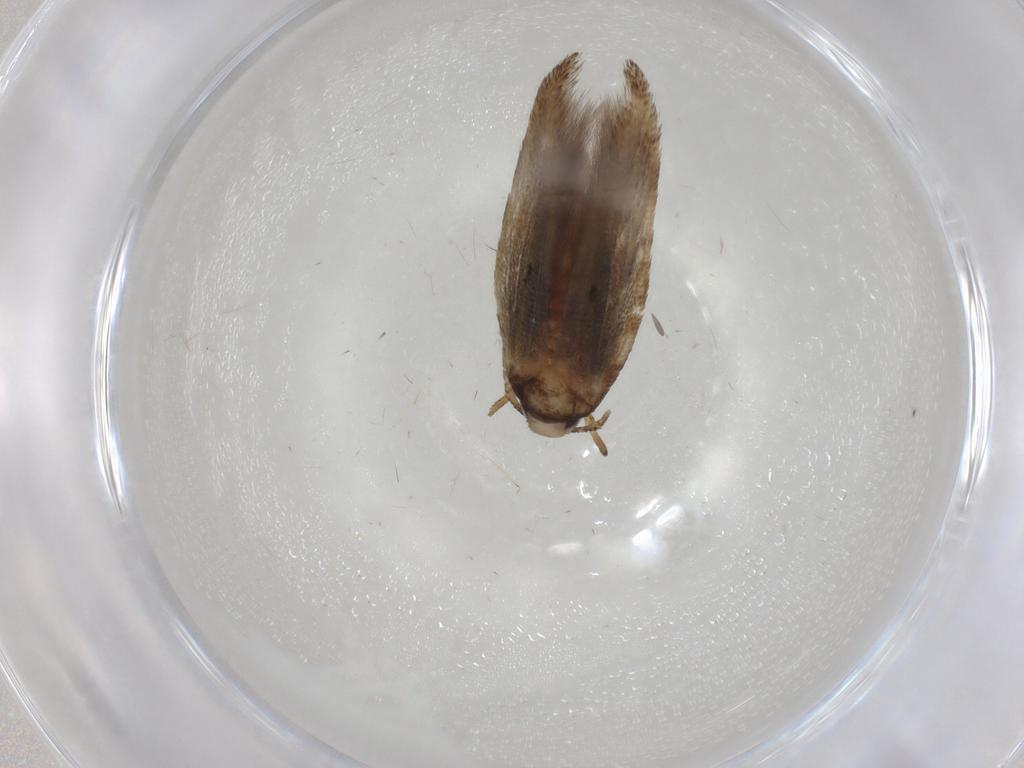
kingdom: Animalia
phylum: Arthropoda
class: Insecta
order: Lepidoptera
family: Cosmopterigidae
